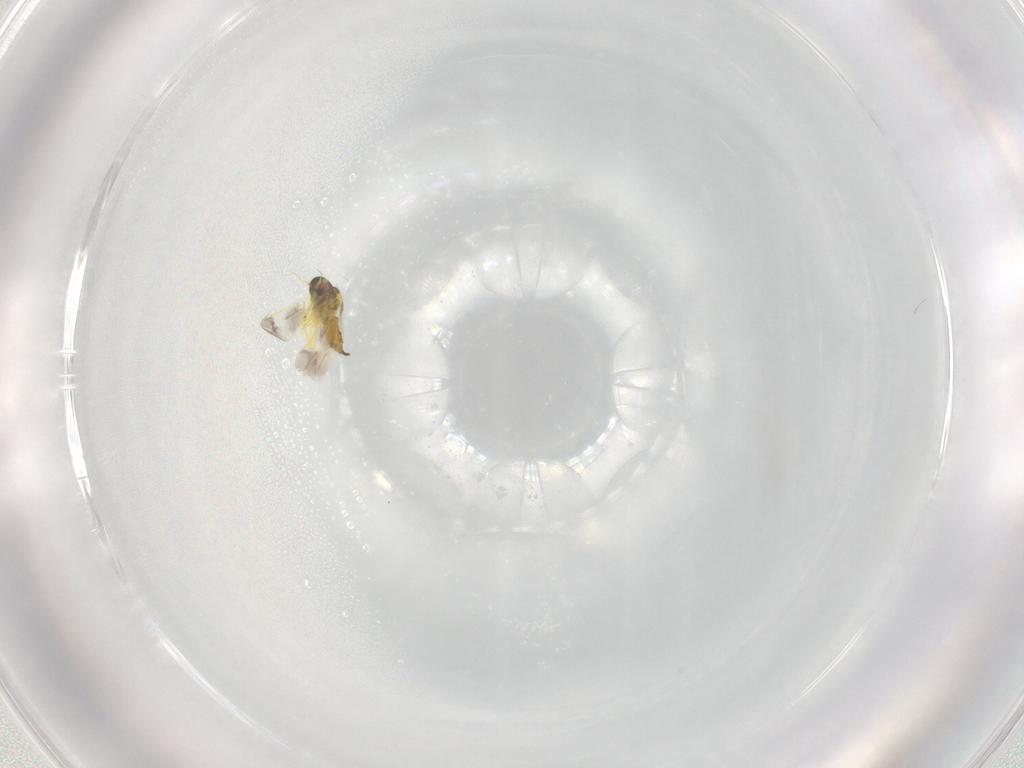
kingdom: Animalia
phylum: Arthropoda
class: Insecta
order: Hemiptera
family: Aleyrodidae
